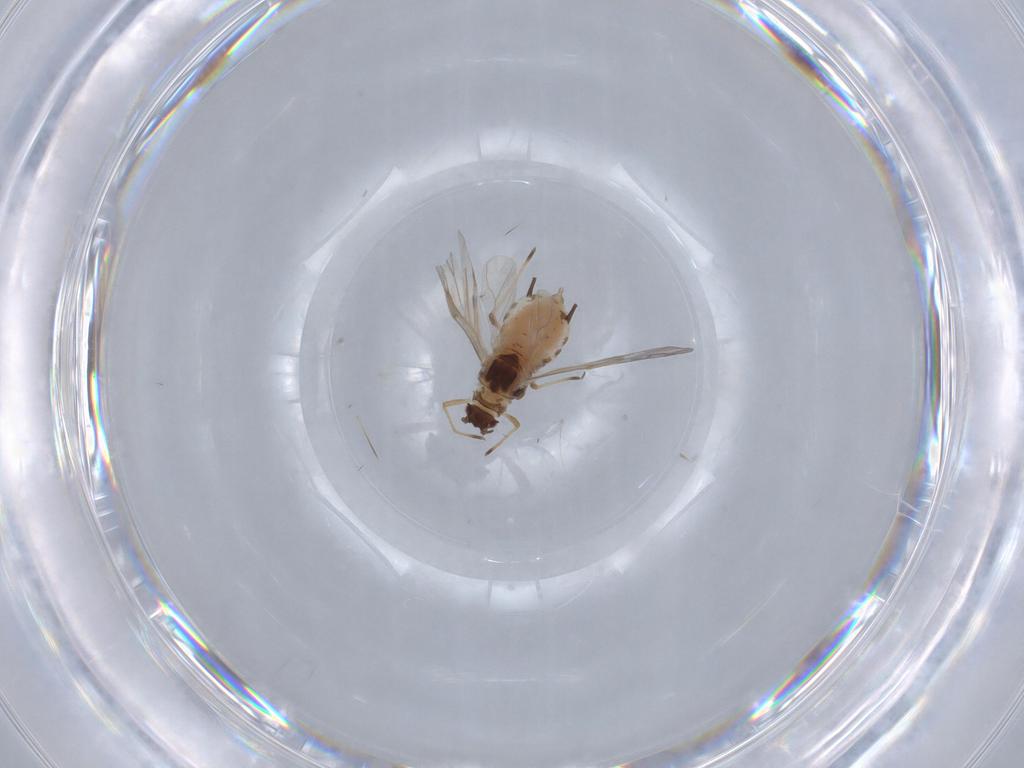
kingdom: Animalia
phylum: Arthropoda
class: Insecta
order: Hemiptera
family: Aphididae
